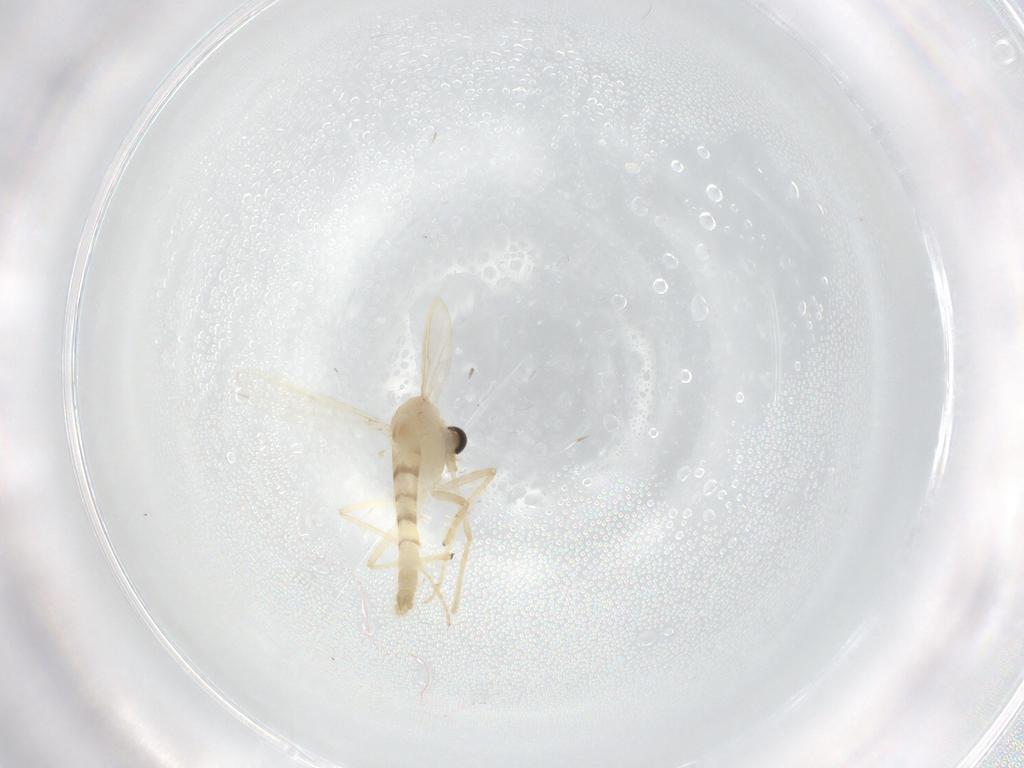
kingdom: Animalia
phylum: Arthropoda
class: Insecta
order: Diptera
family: Chironomidae
